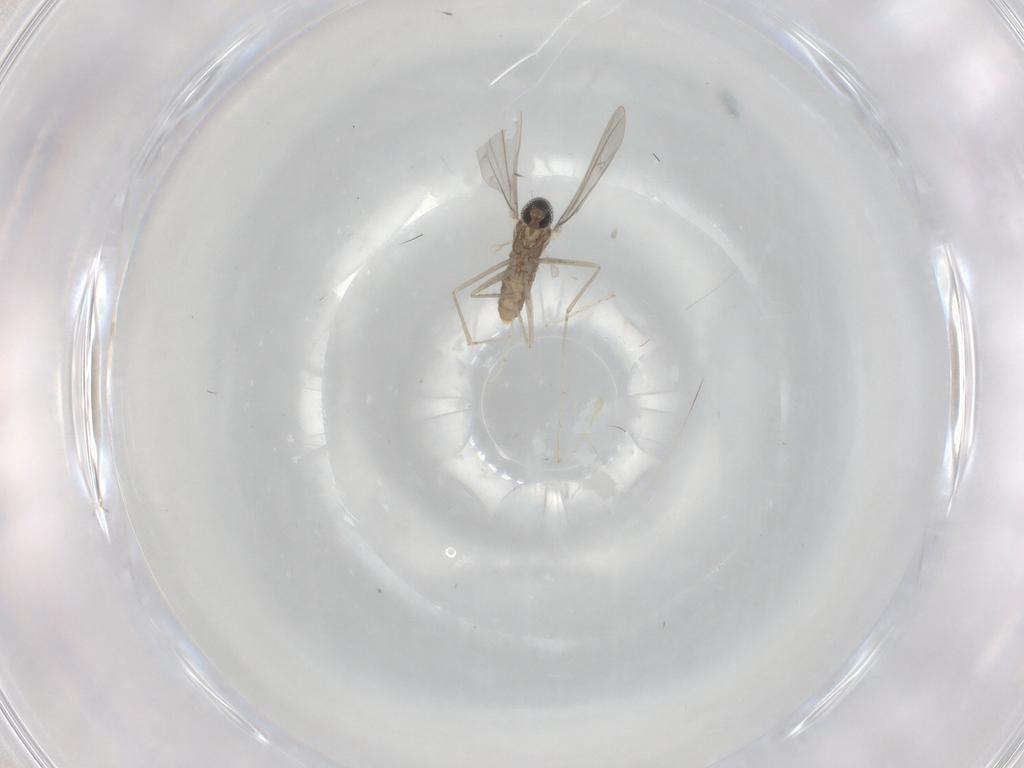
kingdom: Animalia
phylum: Arthropoda
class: Insecta
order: Diptera
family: Cecidomyiidae
